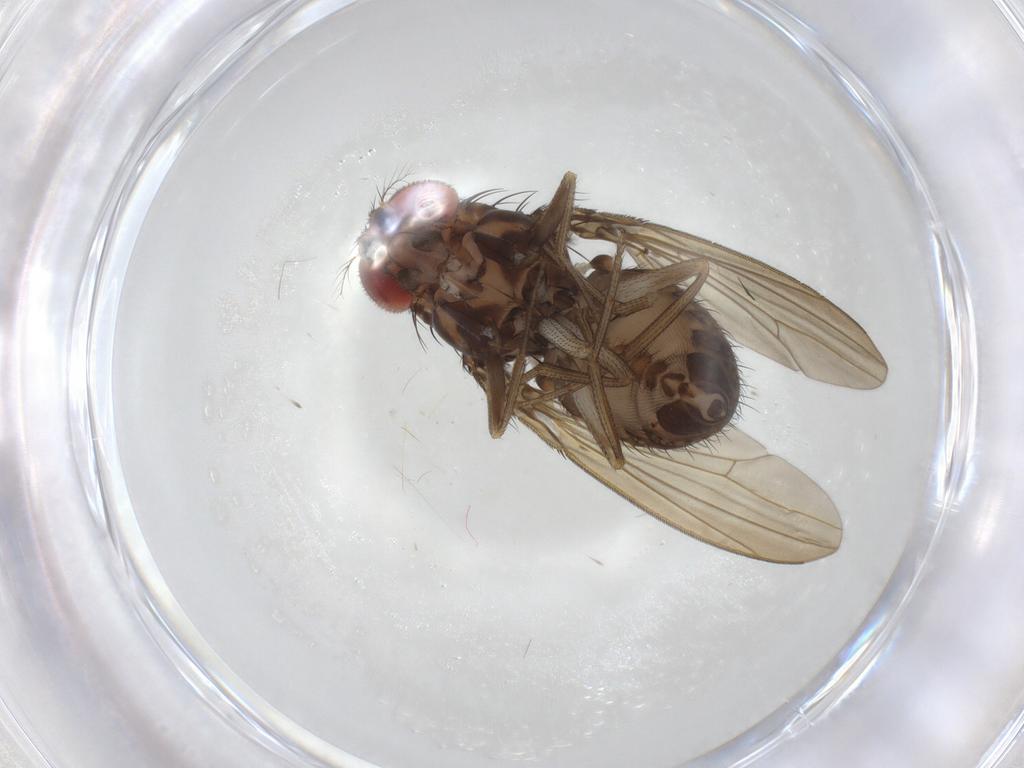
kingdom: Animalia
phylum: Arthropoda
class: Insecta
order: Diptera
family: Drosophilidae
